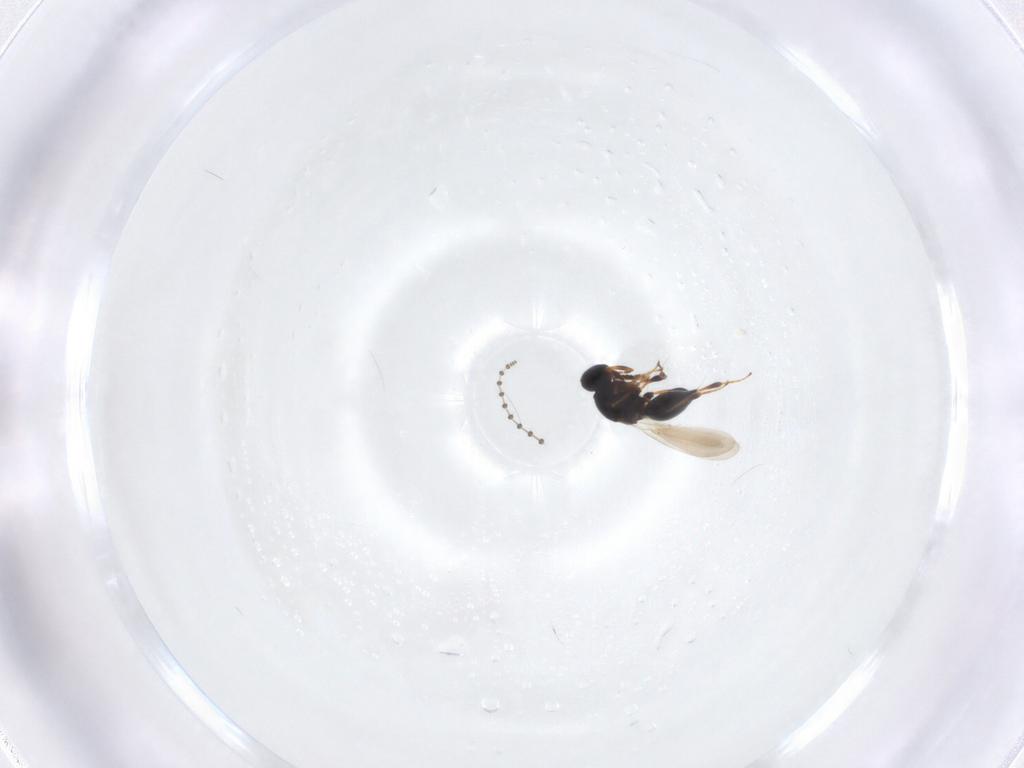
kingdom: Animalia
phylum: Arthropoda
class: Insecta
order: Hymenoptera
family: Platygastridae
